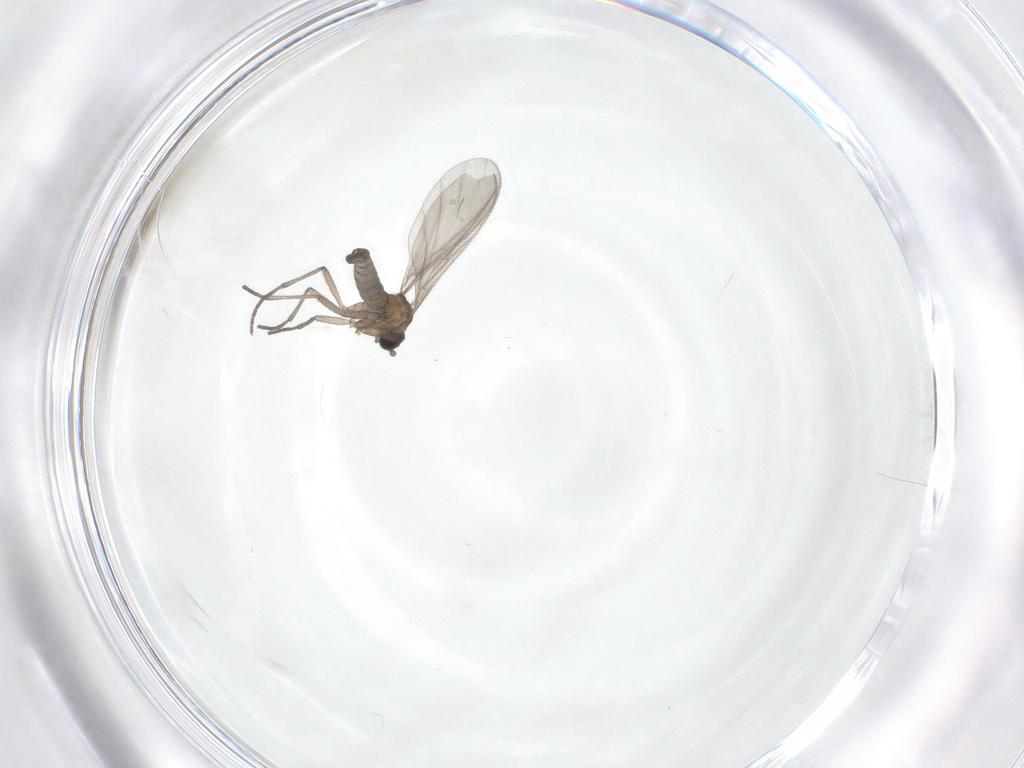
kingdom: Animalia
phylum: Arthropoda
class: Insecta
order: Diptera
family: Sciaridae
